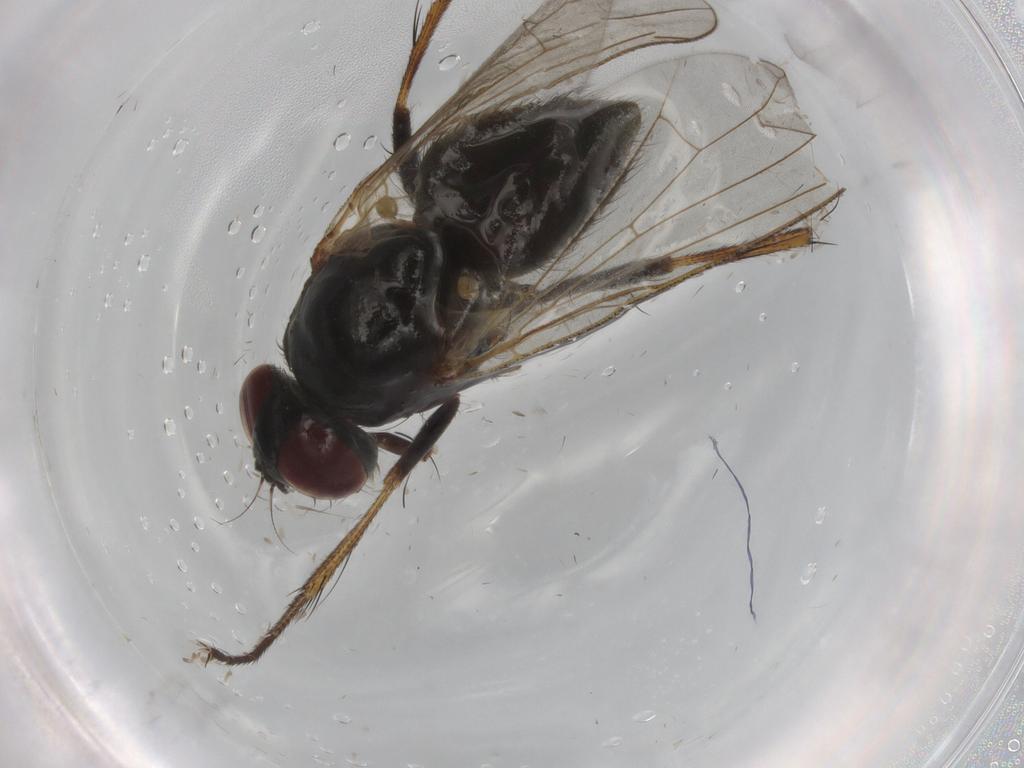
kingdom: Animalia
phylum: Arthropoda
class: Insecta
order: Diptera
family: Muscidae
